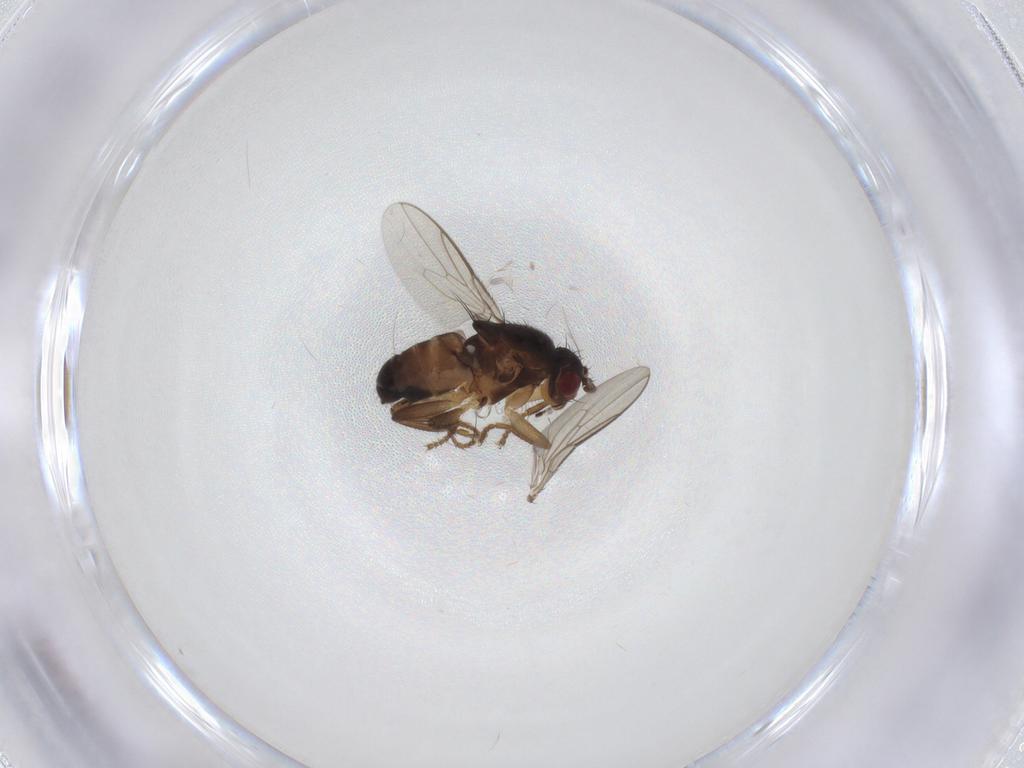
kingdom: Animalia
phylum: Arthropoda
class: Insecta
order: Diptera
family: Sphaeroceridae
